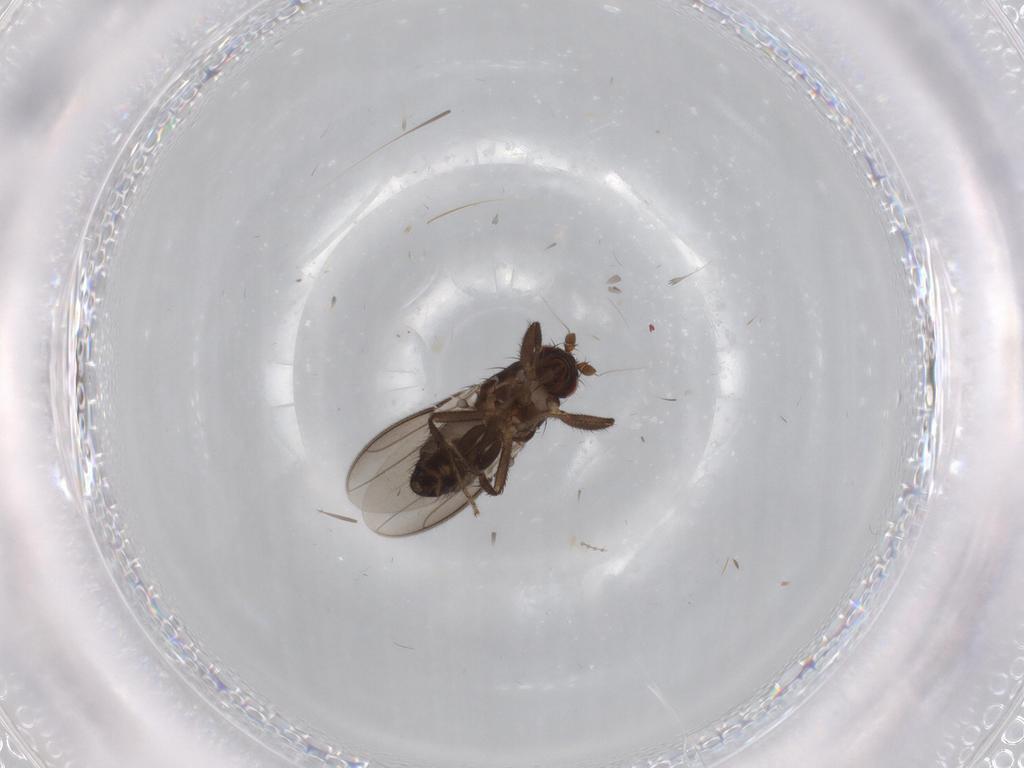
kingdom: Animalia
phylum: Arthropoda
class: Insecta
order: Diptera
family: Sphaeroceridae
